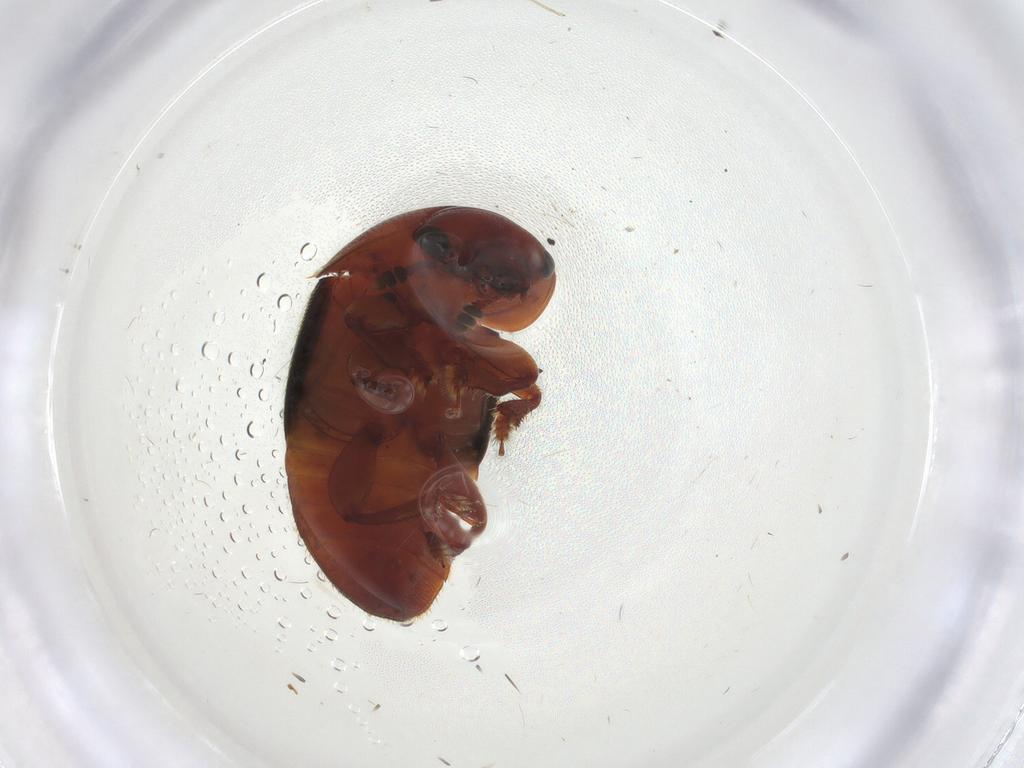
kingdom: Animalia
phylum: Arthropoda
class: Insecta
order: Coleoptera
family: Nitidulidae
